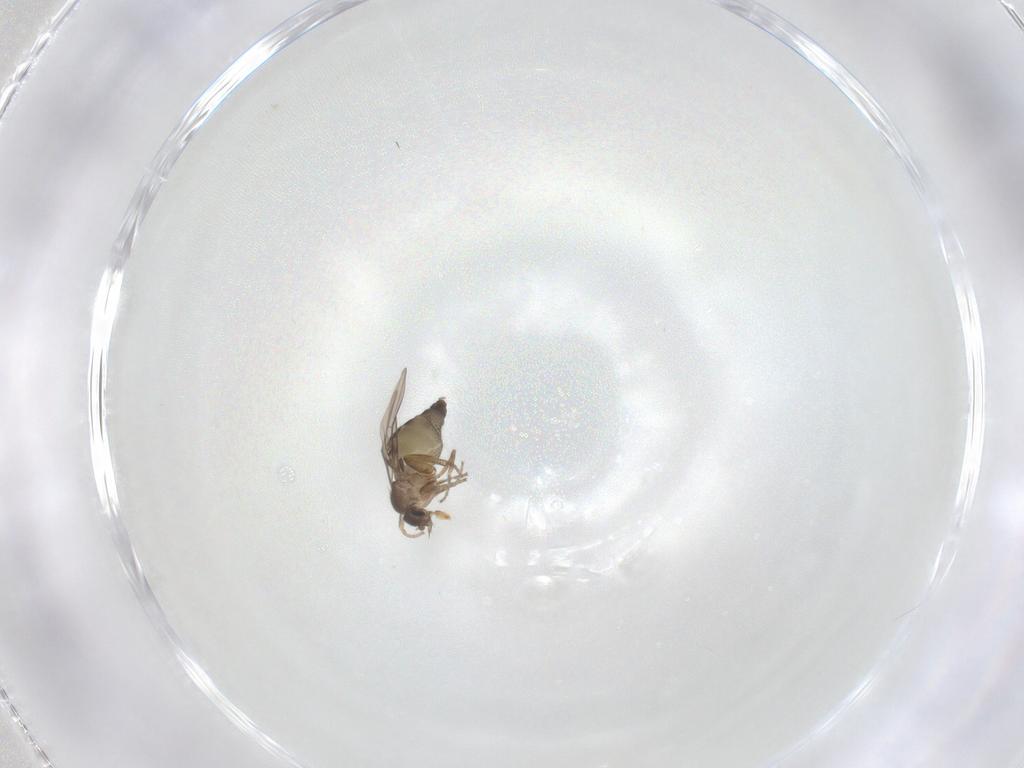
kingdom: Animalia
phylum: Arthropoda
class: Insecta
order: Diptera
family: Phoridae
